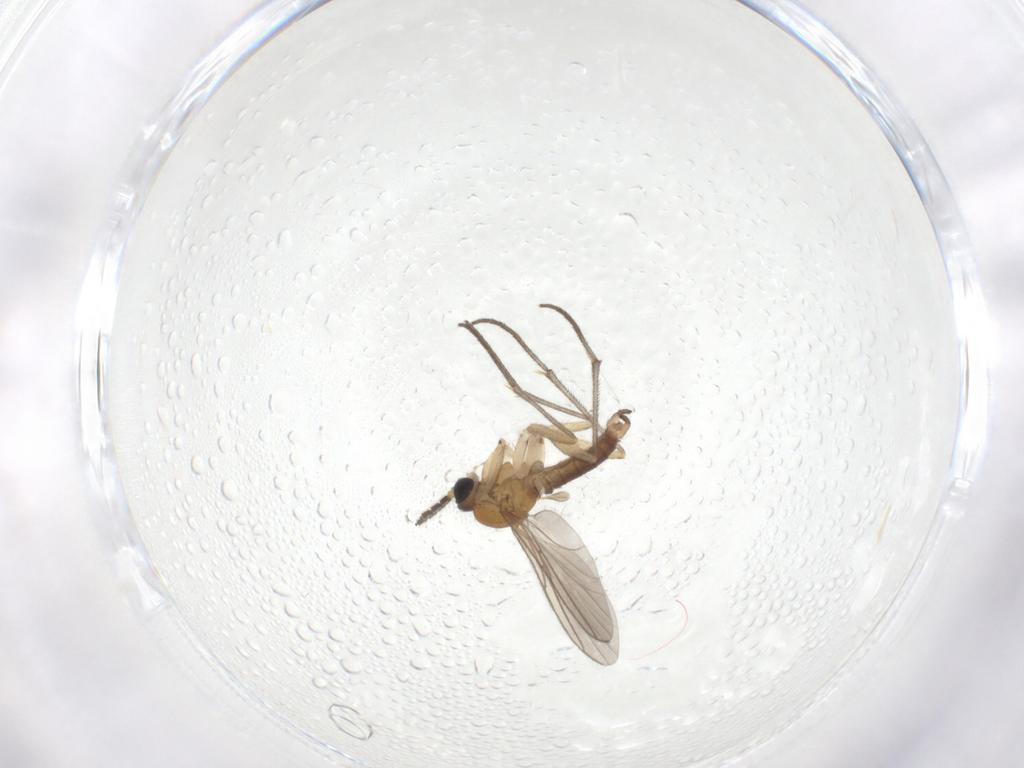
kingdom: Animalia
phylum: Arthropoda
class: Insecta
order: Diptera
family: Sciaridae
